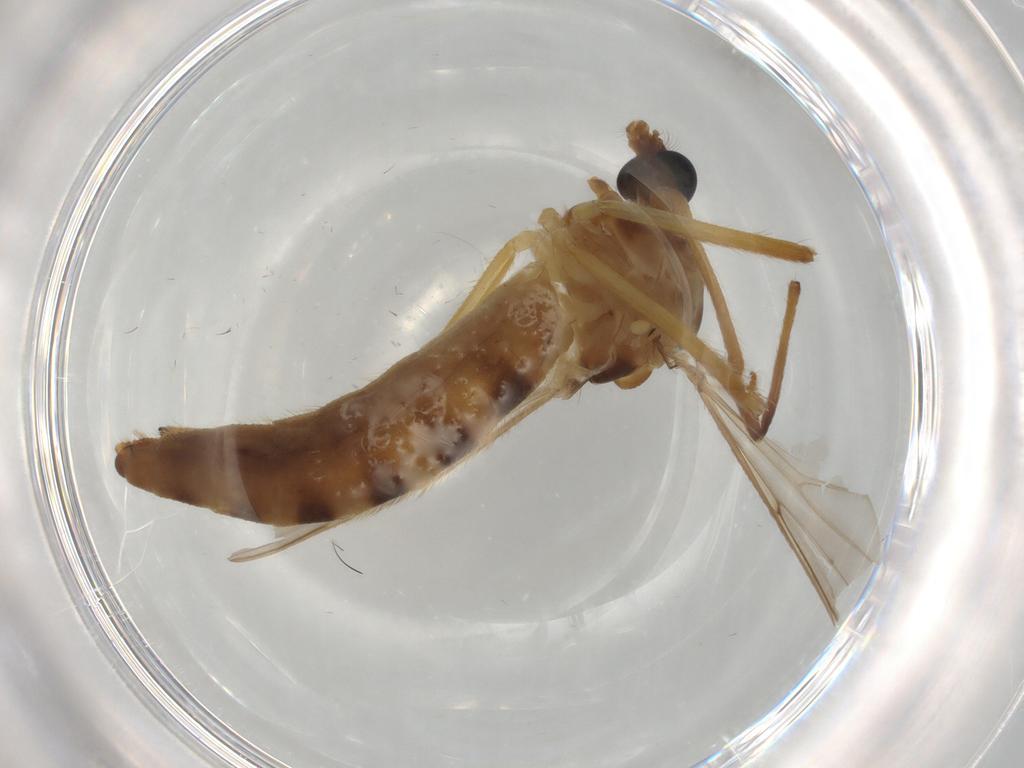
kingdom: Animalia
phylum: Arthropoda
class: Insecta
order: Diptera
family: Chironomidae
